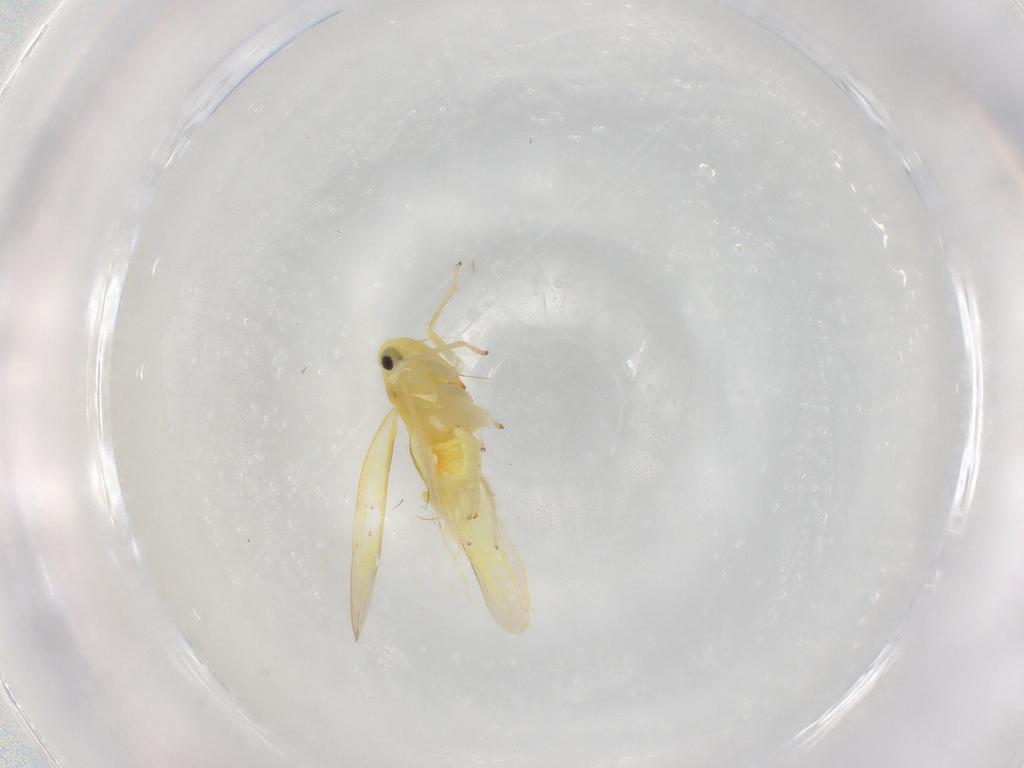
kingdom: Animalia
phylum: Arthropoda
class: Insecta
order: Hemiptera
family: Cicadellidae
